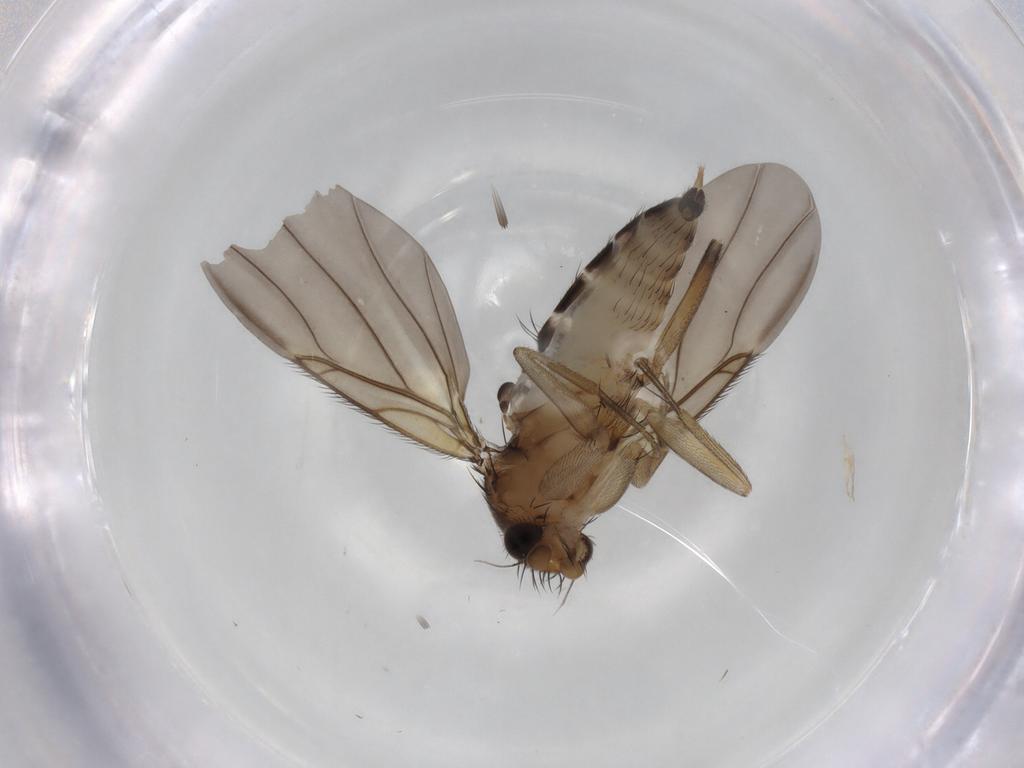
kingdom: Animalia
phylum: Arthropoda
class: Insecta
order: Diptera
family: Phoridae
